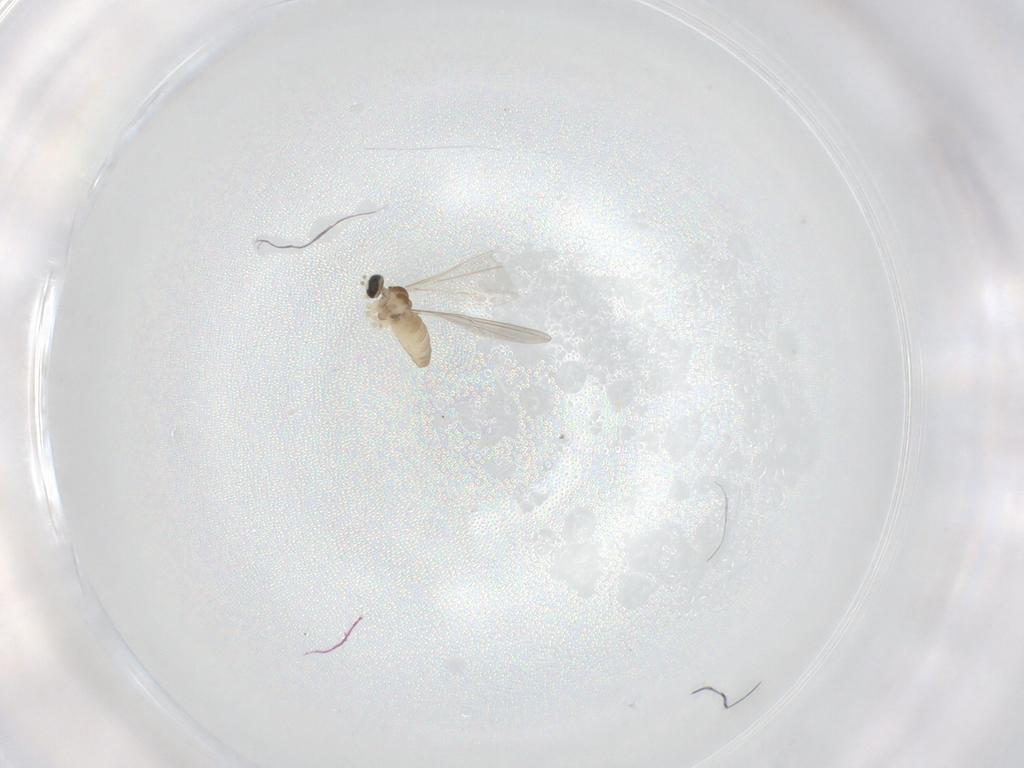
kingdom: Animalia
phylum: Arthropoda
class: Insecta
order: Diptera
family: Cecidomyiidae
